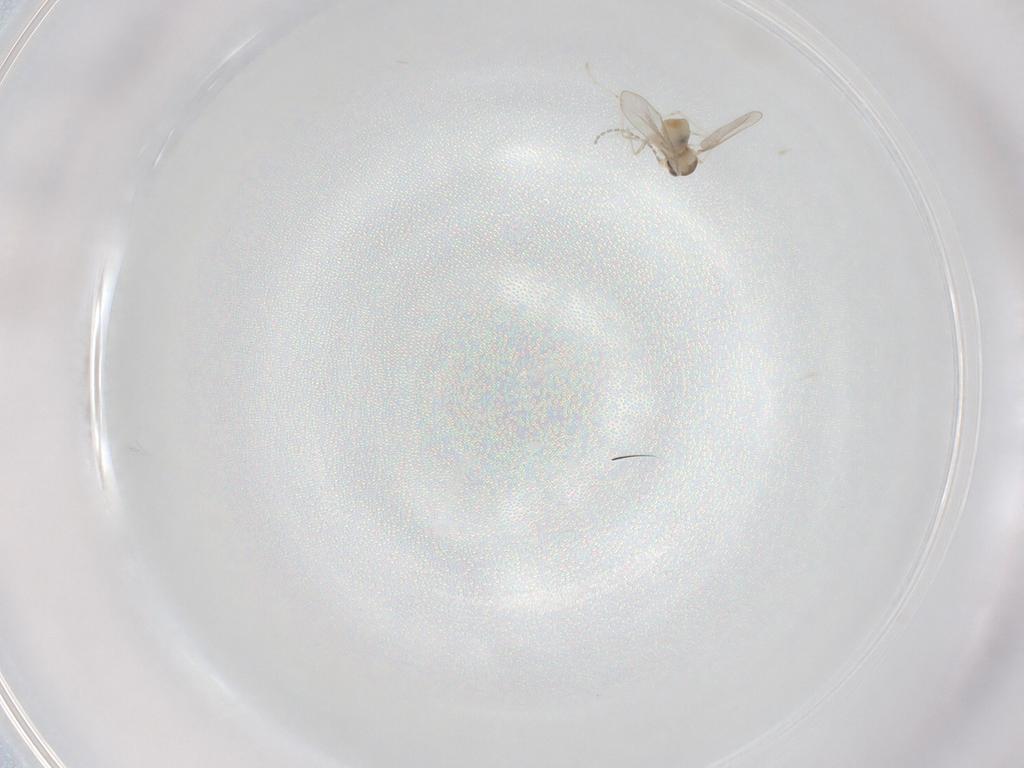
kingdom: Animalia
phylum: Arthropoda
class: Insecta
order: Diptera
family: Cecidomyiidae
